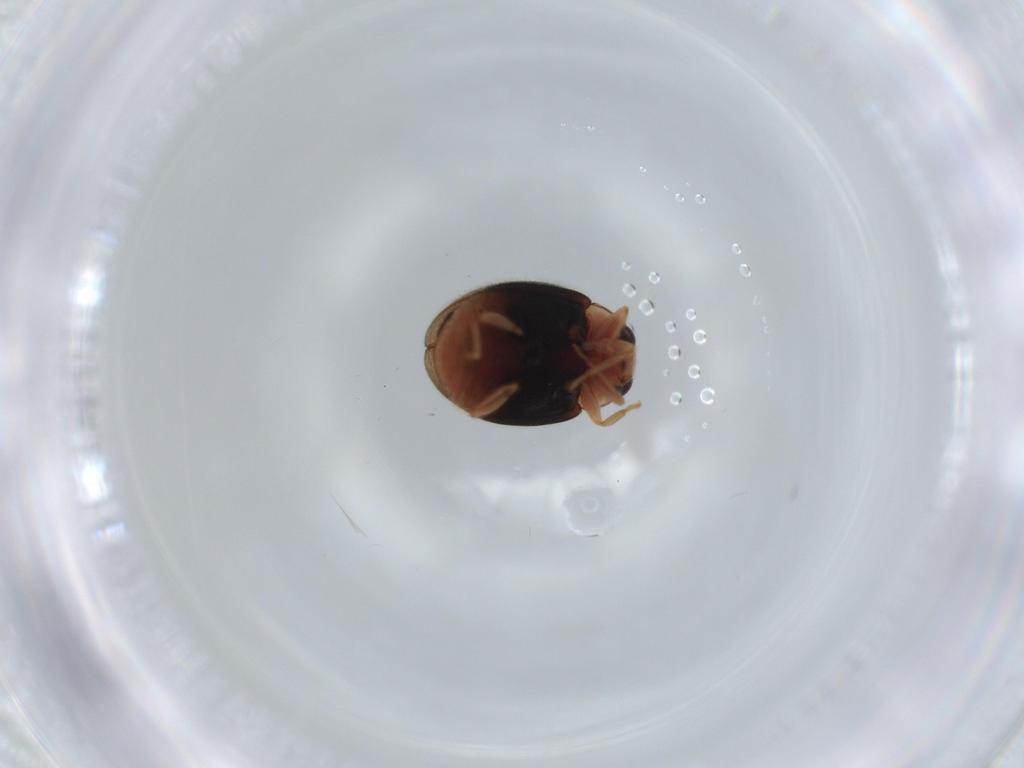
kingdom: Animalia
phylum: Arthropoda
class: Insecta
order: Coleoptera
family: Coccinellidae
